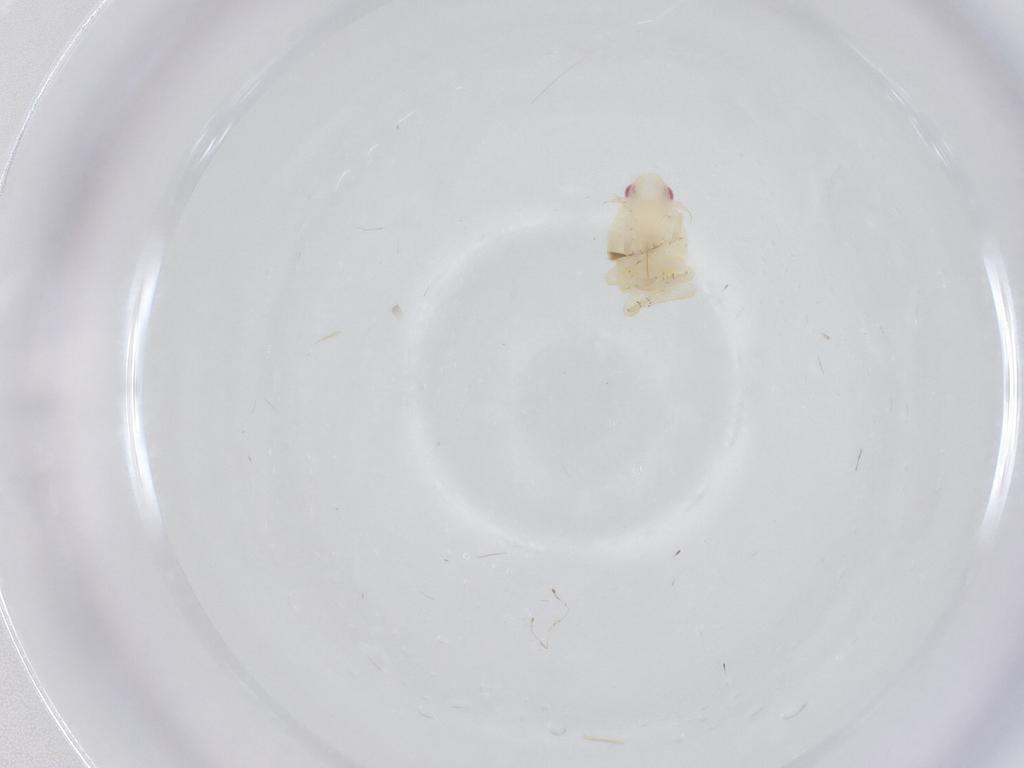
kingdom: Animalia
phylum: Arthropoda
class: Insecta
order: Hemiptera
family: Fulgoroidea_incertae_sedis
